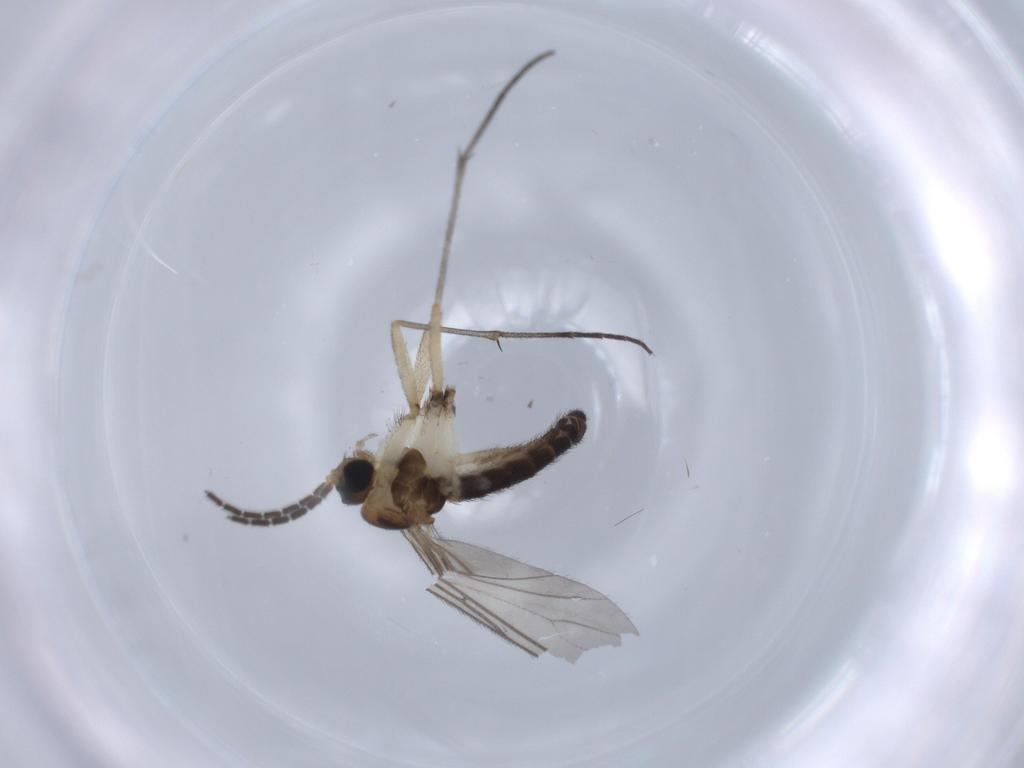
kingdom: Animalia
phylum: Arthropoda
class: Insecta
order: Diptera
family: Sciaridae
